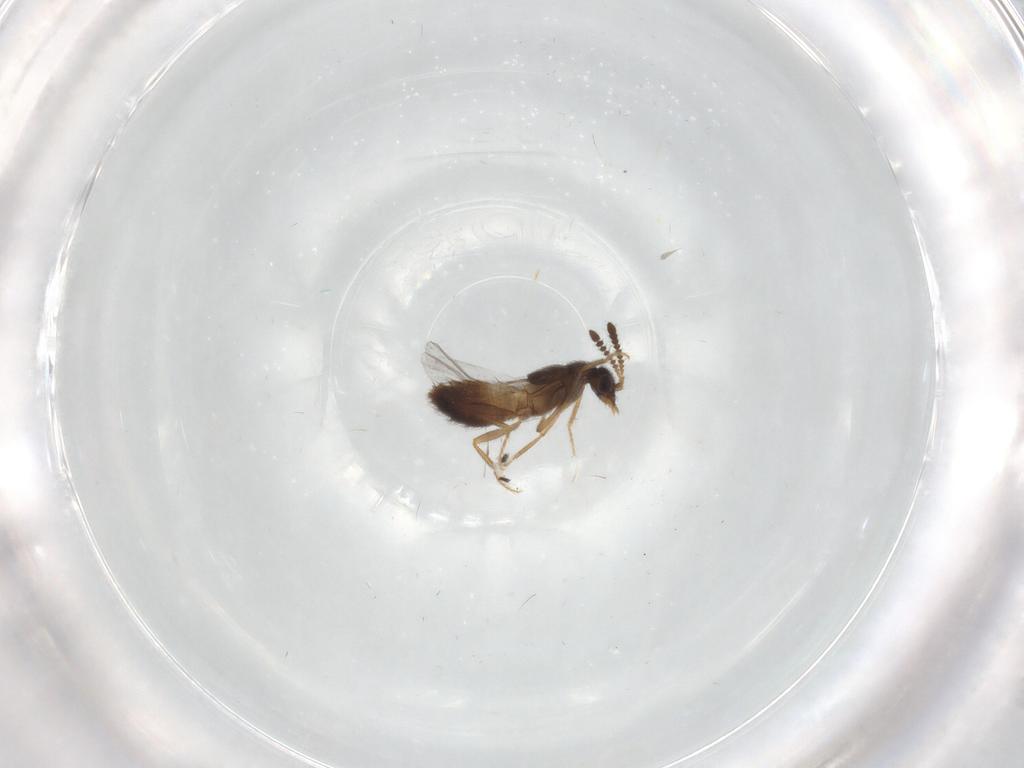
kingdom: Animalia
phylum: Arthropoda
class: Insecta
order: Coleoptera
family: Staphylinidae
